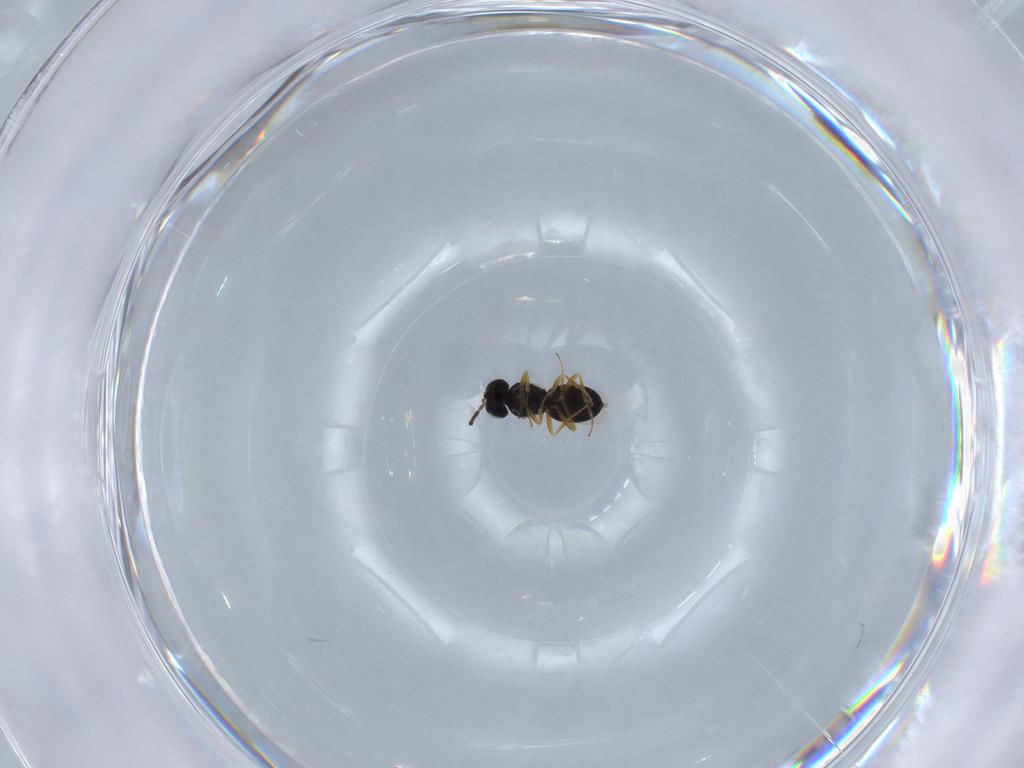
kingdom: Animalia
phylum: Arthropoda
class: Insecta
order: Hymenoptera
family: Scelionidae
